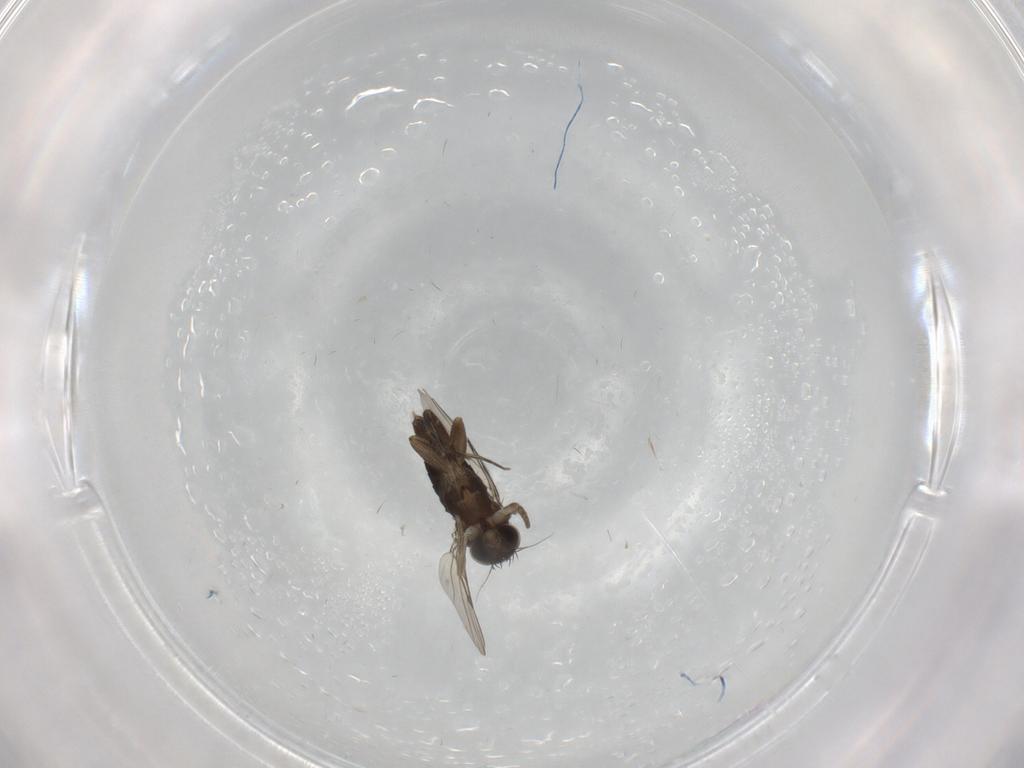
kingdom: Animalia
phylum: Arthropoda
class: Insecta
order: Diptera
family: Phoridae
